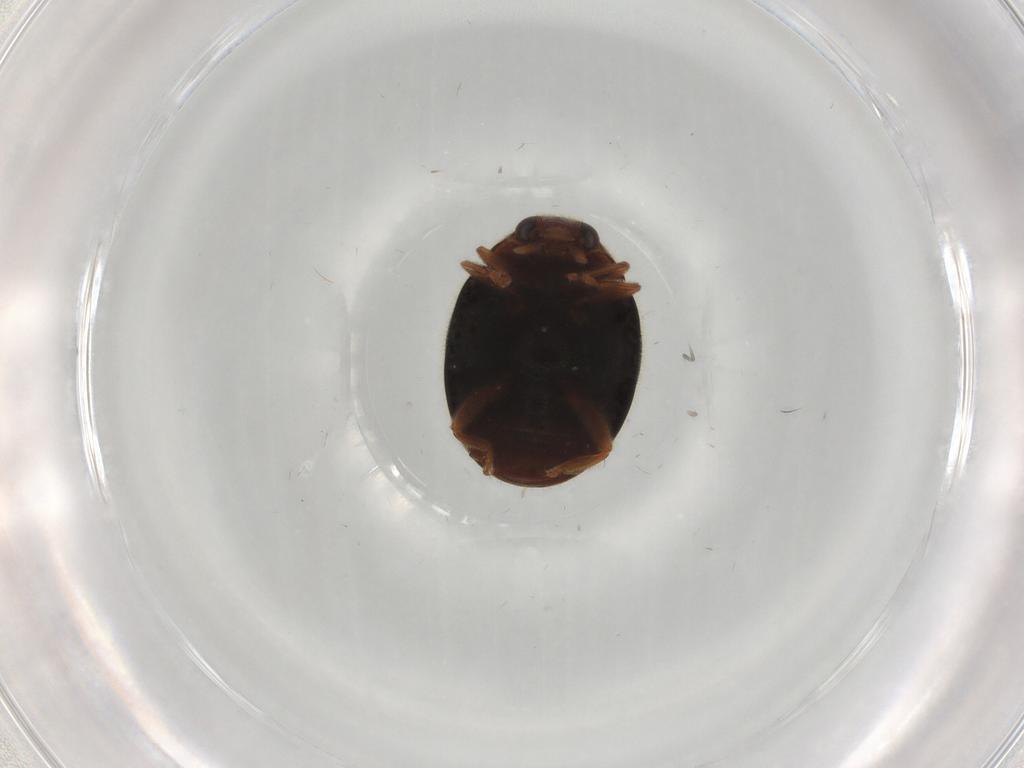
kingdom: Animalia
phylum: Arthropoda
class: Insecta
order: Coleoptera
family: Coccinellidae
